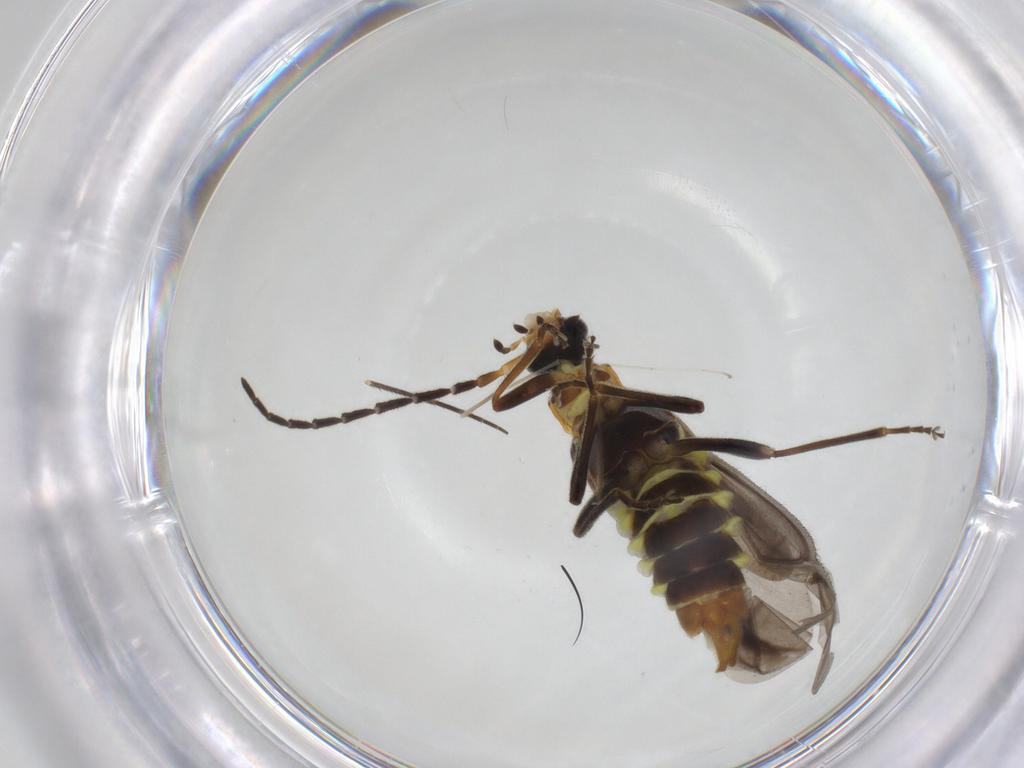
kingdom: Animalia
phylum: Arthropoda
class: Insecta
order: Coleoptera
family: Cantharidae
